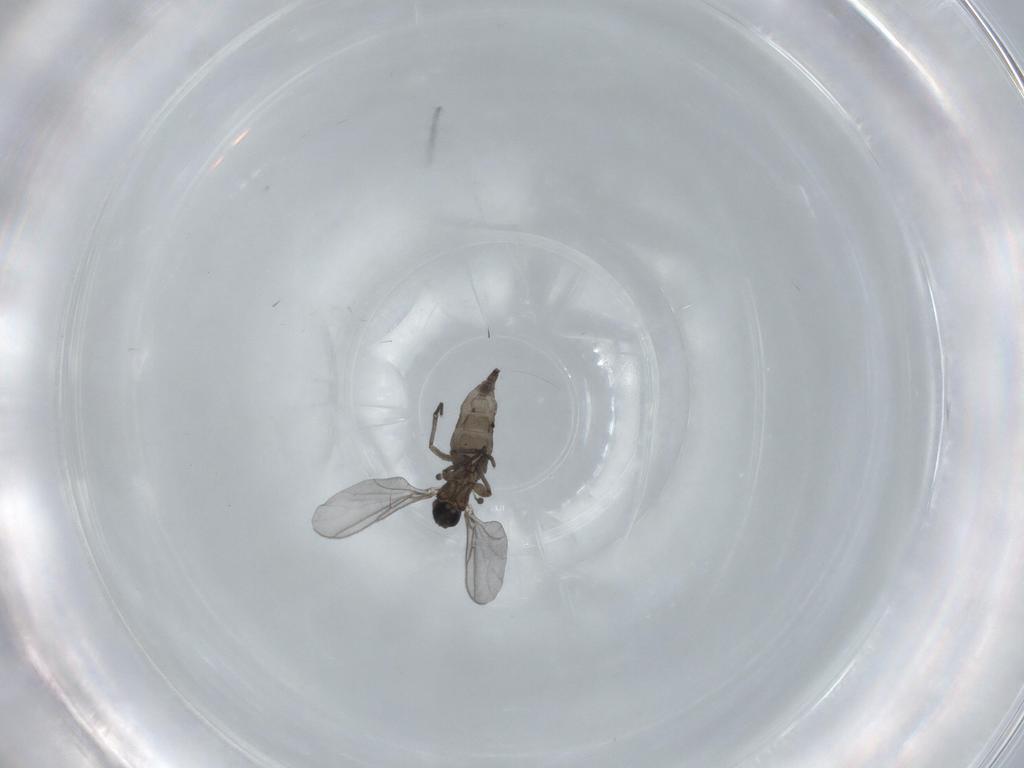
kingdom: Animalia
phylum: Arthropoda
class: Insecta
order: Diptera
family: Sciaridae
